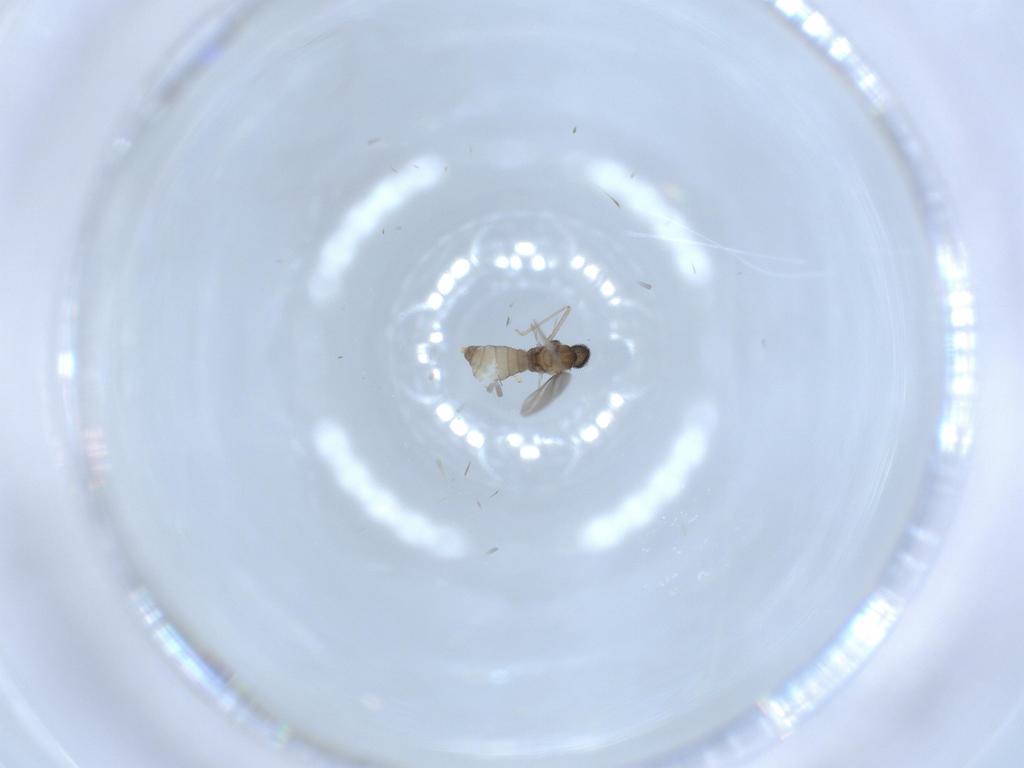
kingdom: Animalia
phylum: Arthropoda
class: Insecta
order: Diptera
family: Cecidomyiidae
